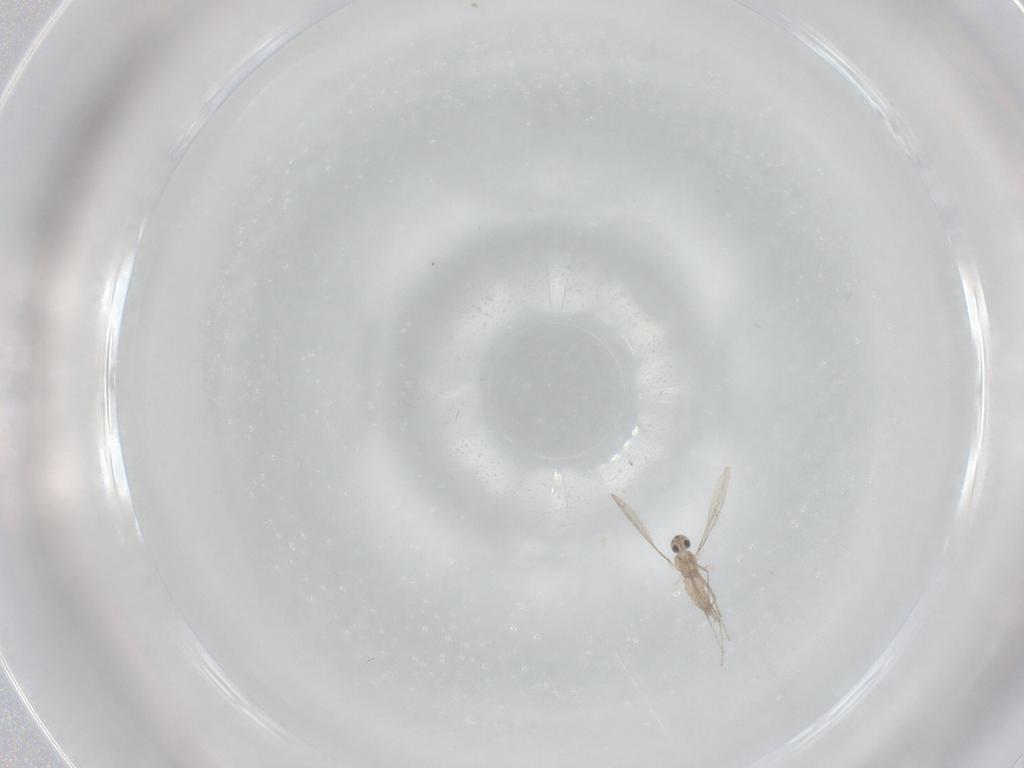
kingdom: Animalia
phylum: Arthropoda
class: Insecta
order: Diptera
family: Cecidomyiidae
